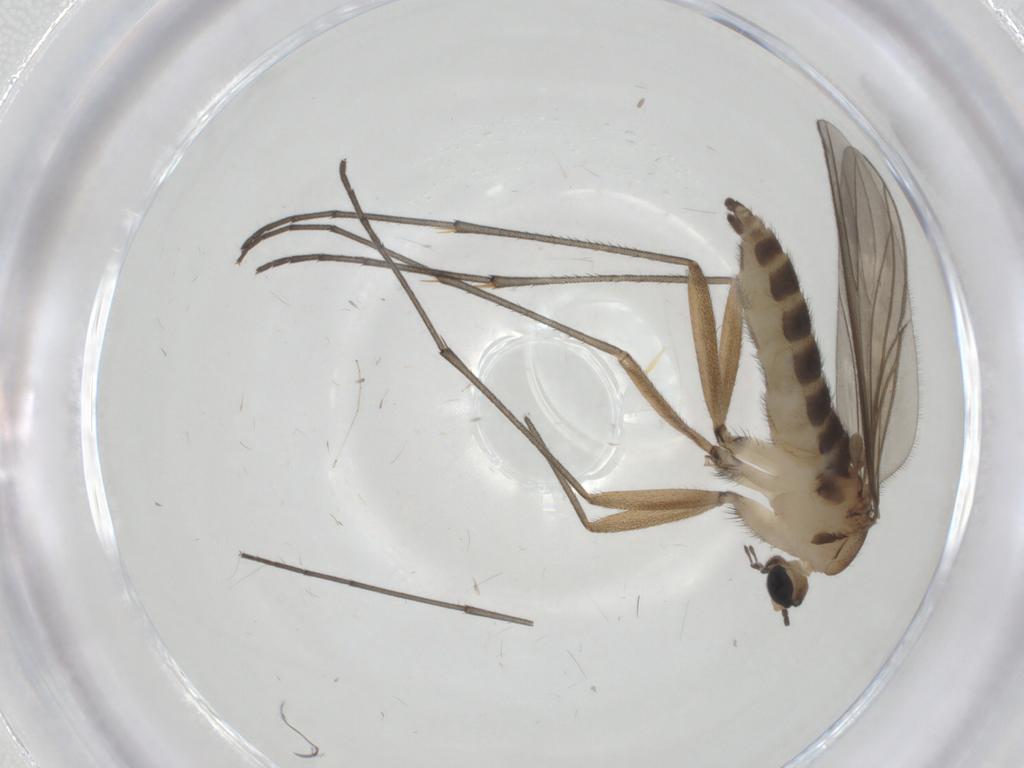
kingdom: Animalia
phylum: Arthropoda
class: Insecta
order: Diptera
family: Sciaridae
